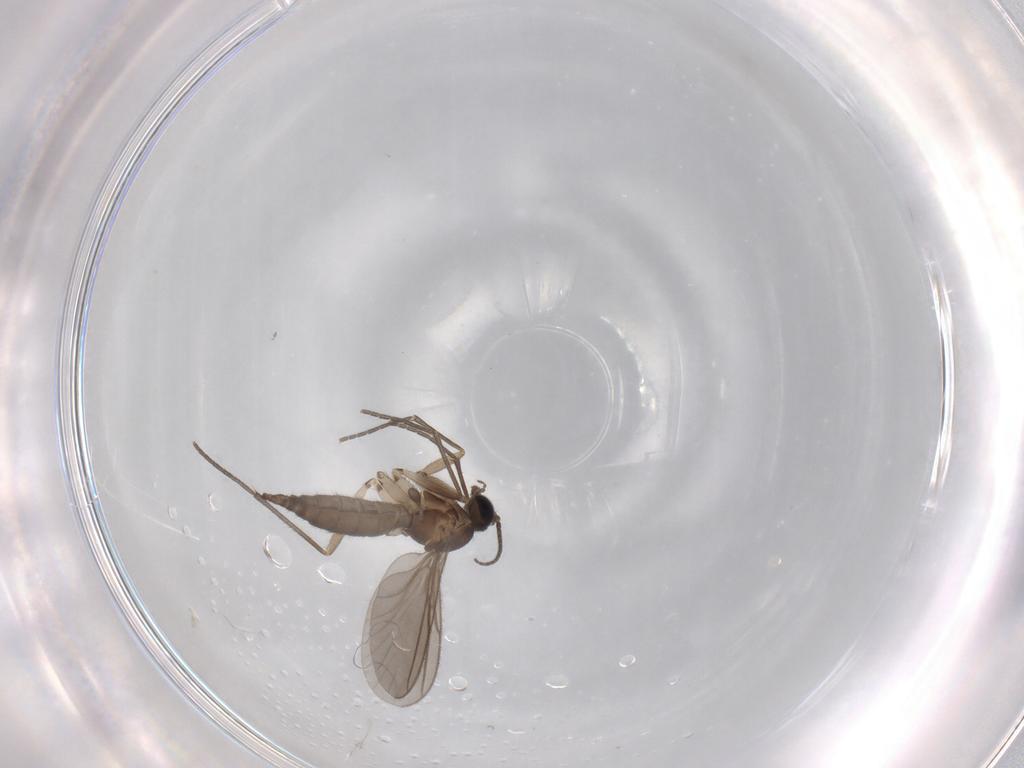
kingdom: Animalia
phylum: Arthropoda
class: Insecta
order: Diptera
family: Sciaridae
